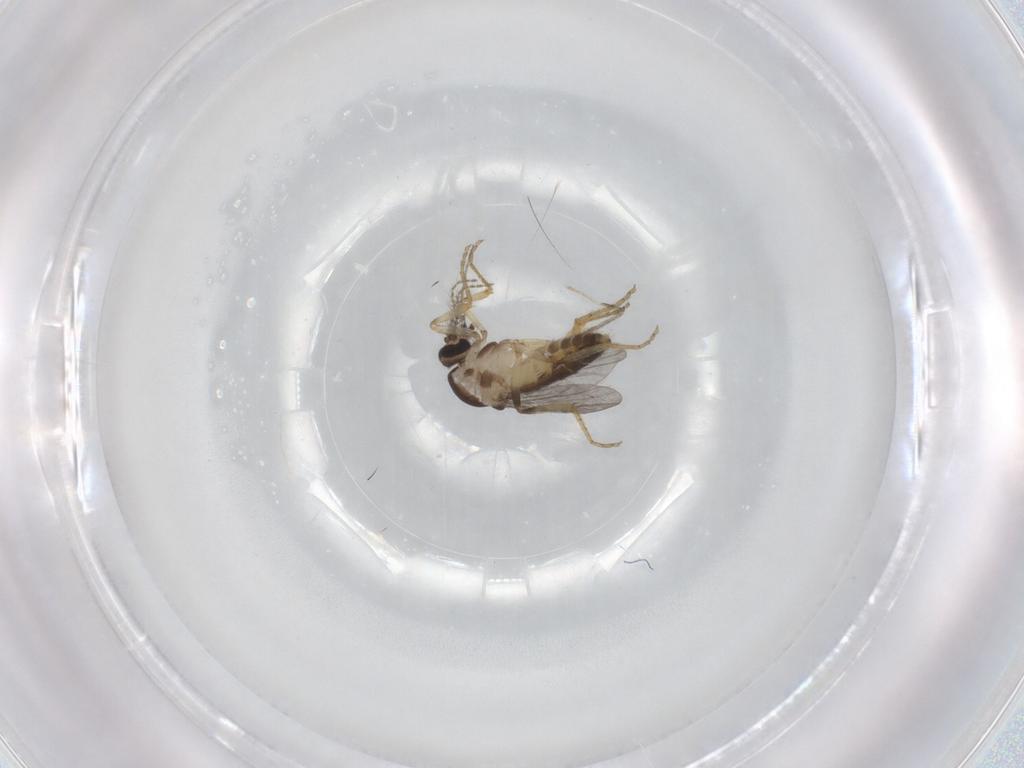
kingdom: Animalia
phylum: Arthropoda
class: Insecta
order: Diptera
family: Ceratopogonidae
